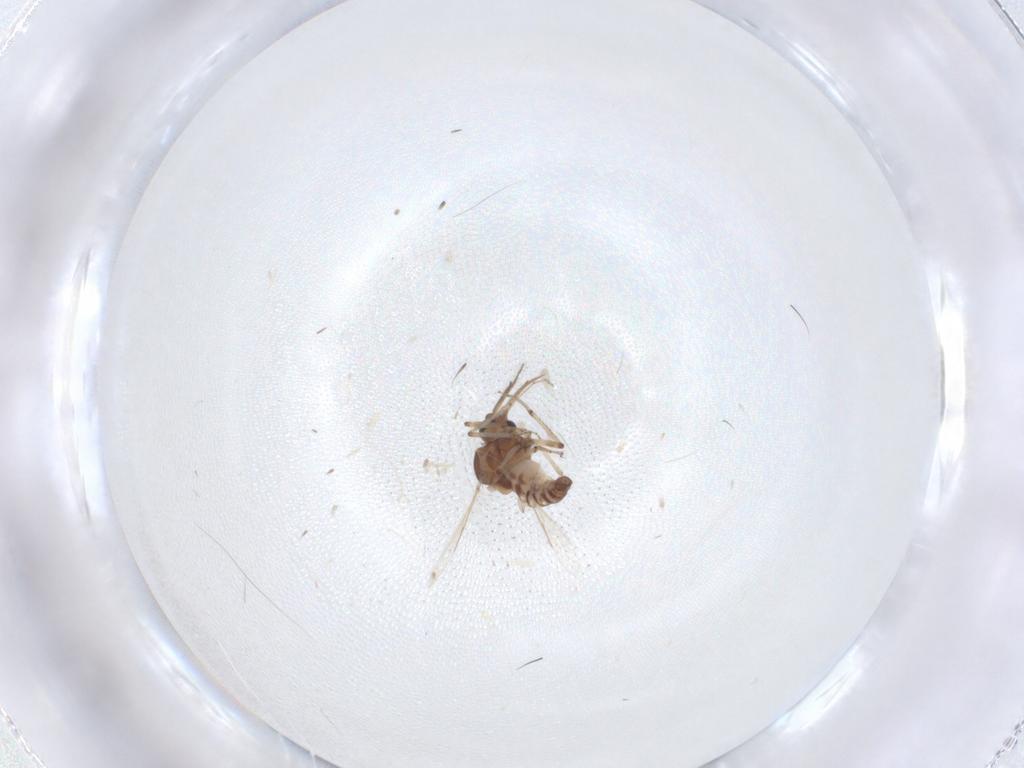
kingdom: Animalia
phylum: Arthropoda
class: Insecta
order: Diptera
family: Ceratopogonidae
